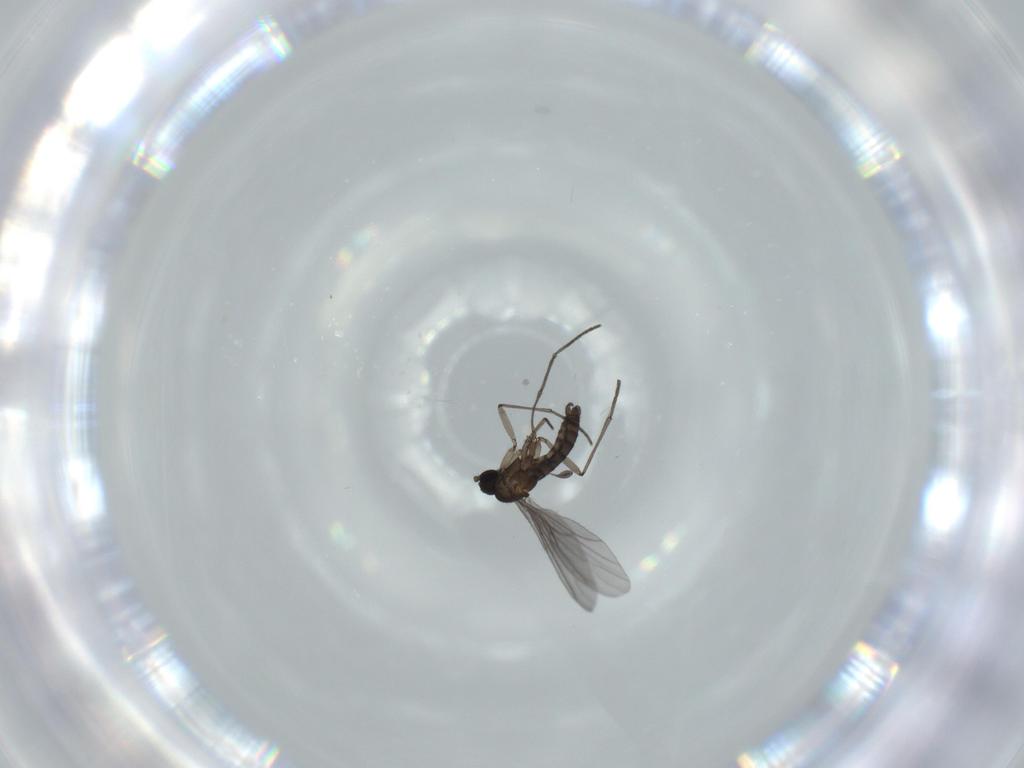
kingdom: Animalia
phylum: Arthropoda
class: Insecta
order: Diptera
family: Sciaridae
